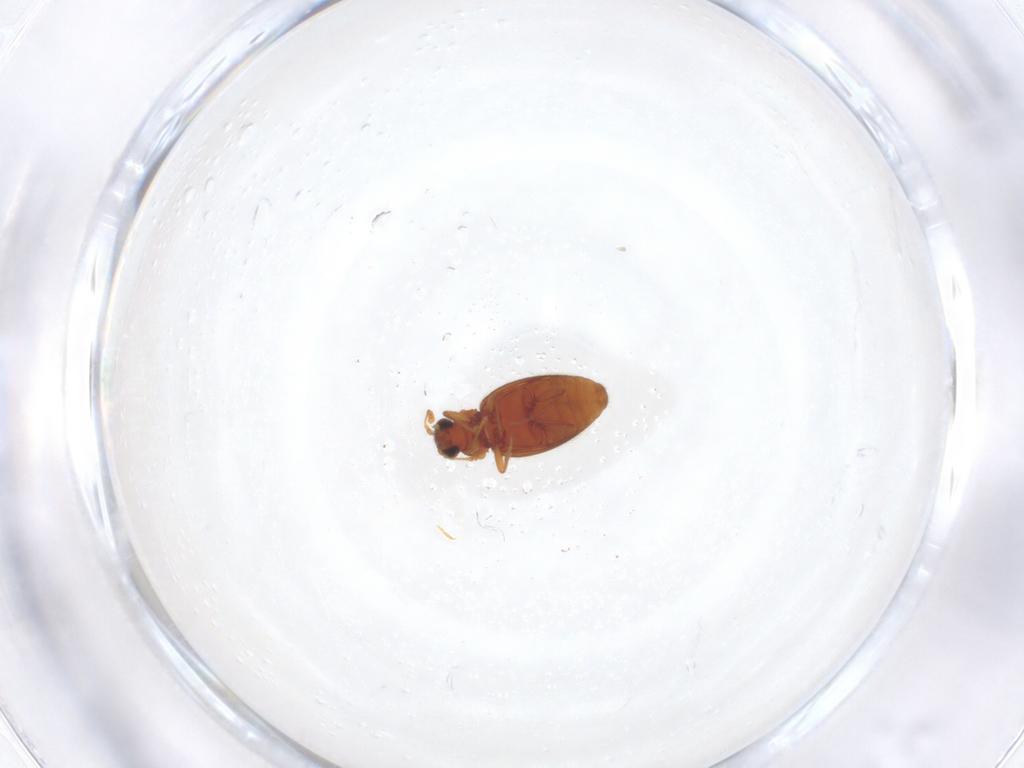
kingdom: Animalia
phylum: Arthropoda
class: Insecta
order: Coleoptera
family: Latridiidae
